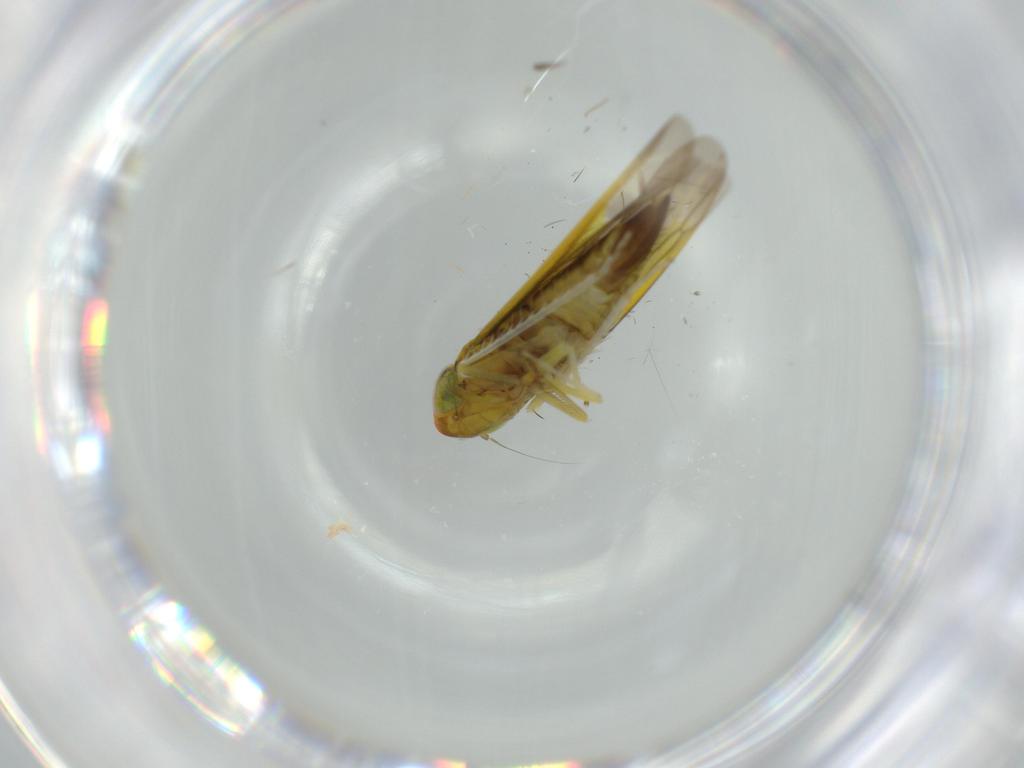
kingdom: Animalia
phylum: Arthropoda
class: Insecta
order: Hemiptera
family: Cicadellidae
